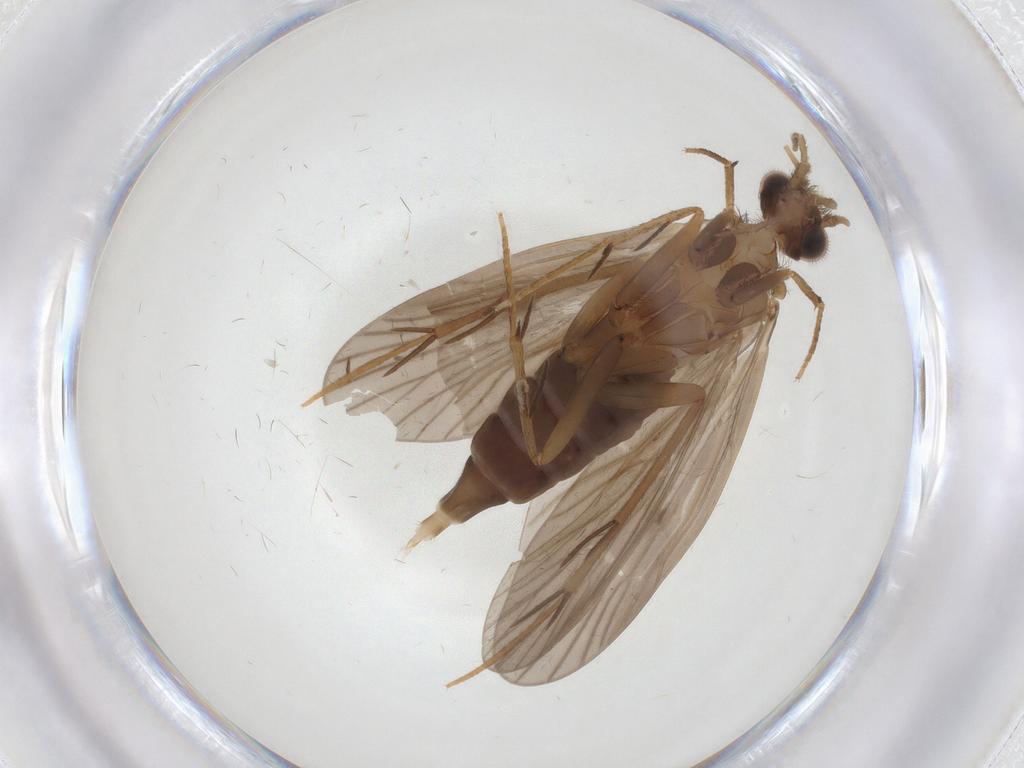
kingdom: Animalia
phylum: Arthropoda
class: Insecta
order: Trichoptera
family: Philopotamidae
